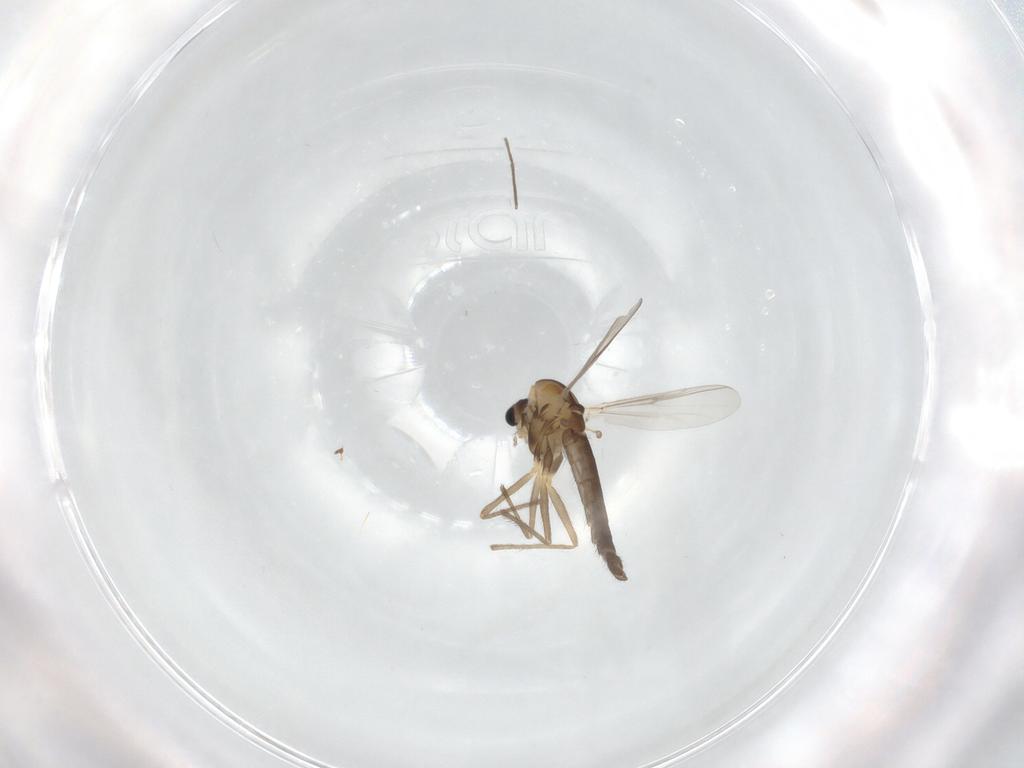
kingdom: Animalia
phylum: Arthropoda
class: Insecta
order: Diptera
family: Chironomidae
